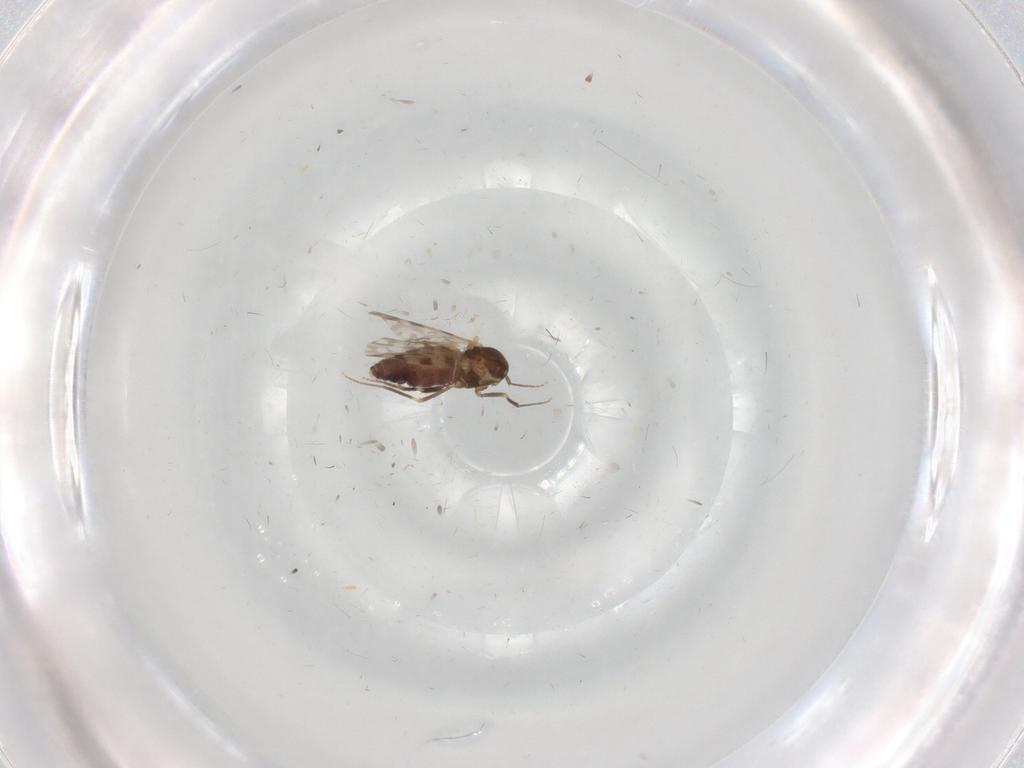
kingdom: Animalia
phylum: Arthropoda
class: Insecta
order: Diptera
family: Ceratopogonidae
